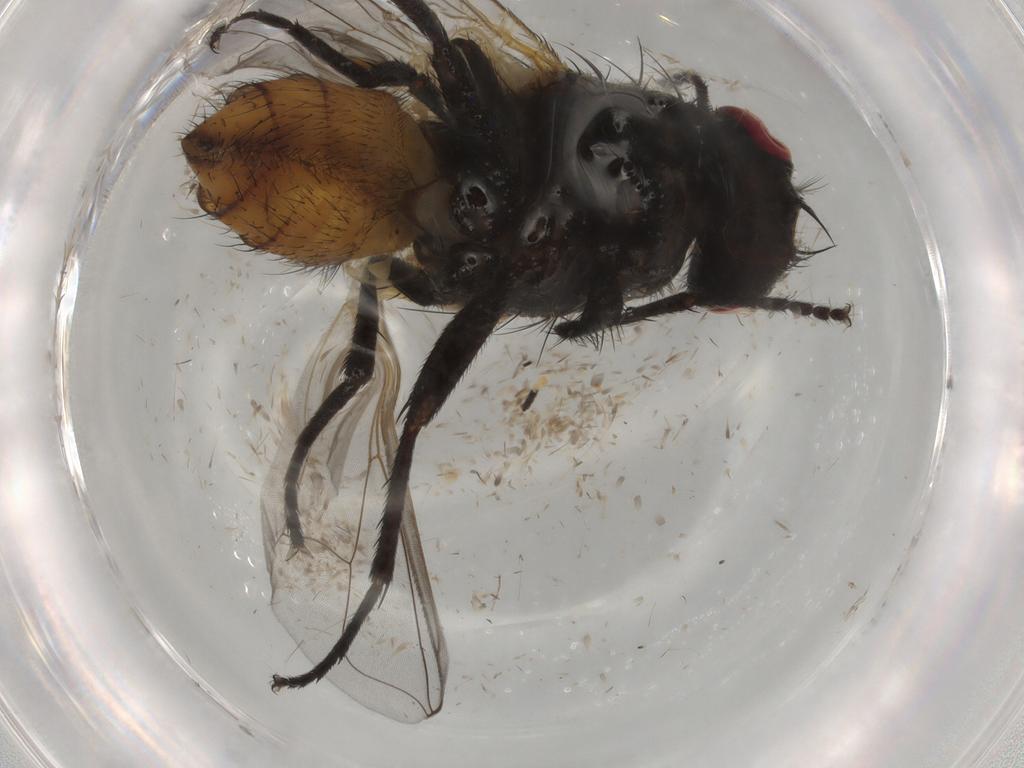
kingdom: Animalia
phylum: Arthropoda
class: Insecta
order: Diptera
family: Muscidae
